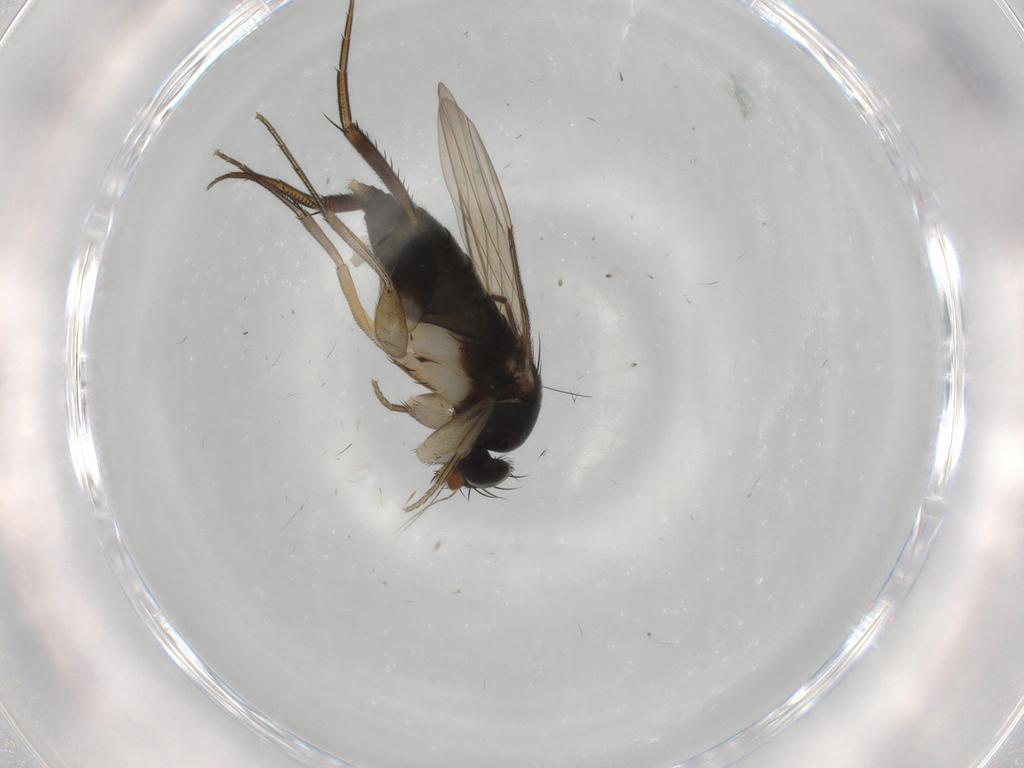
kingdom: Animalia
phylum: Arthropoda
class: Insecta
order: Diptera
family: Phoridae
